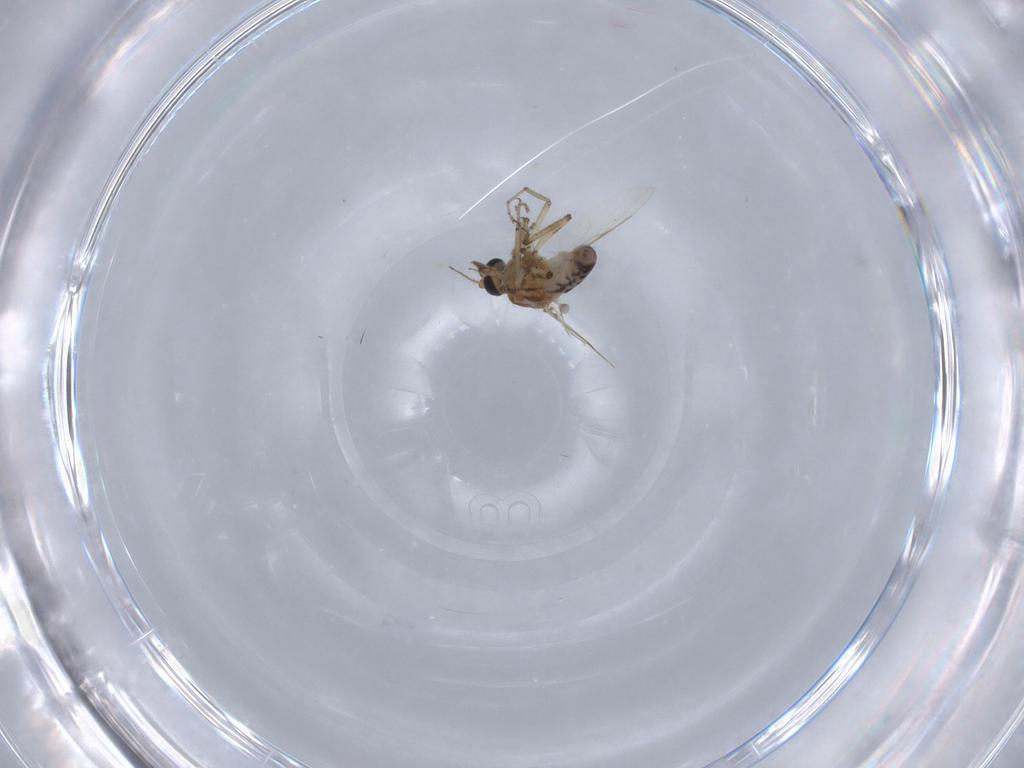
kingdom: Animalia
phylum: Arthropoda
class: Insecta
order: Diptera
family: Ceratopogonidae
